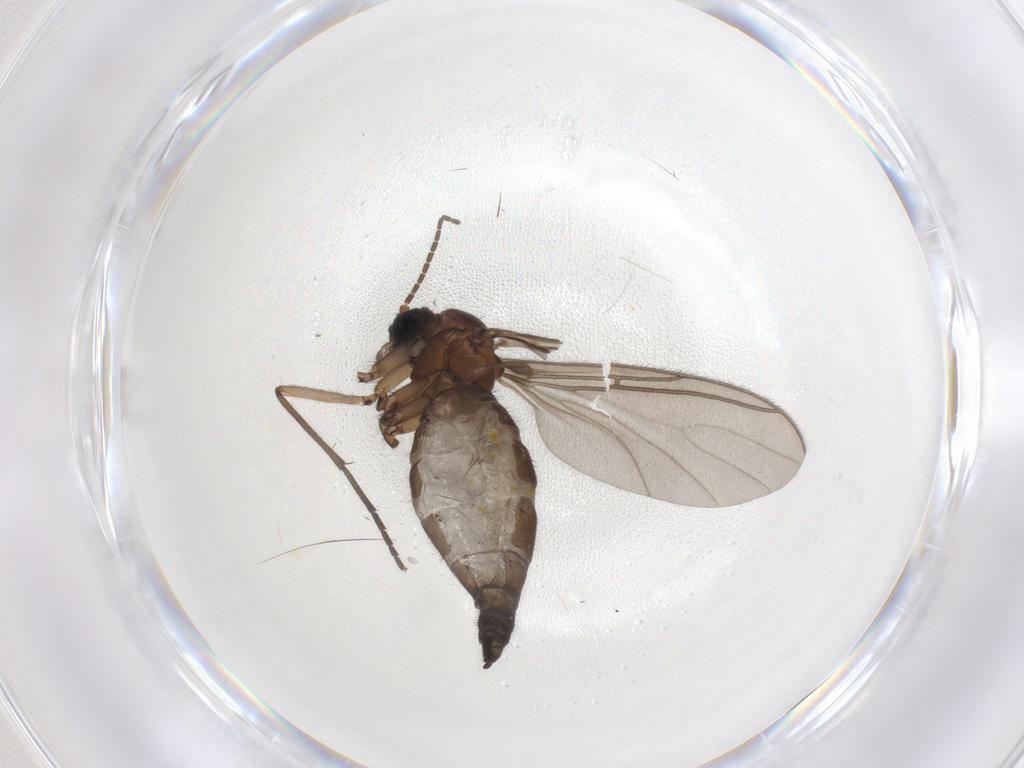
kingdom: Animalia
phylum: Arthropoda
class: Insecta
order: Diptera
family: Sciaridae
